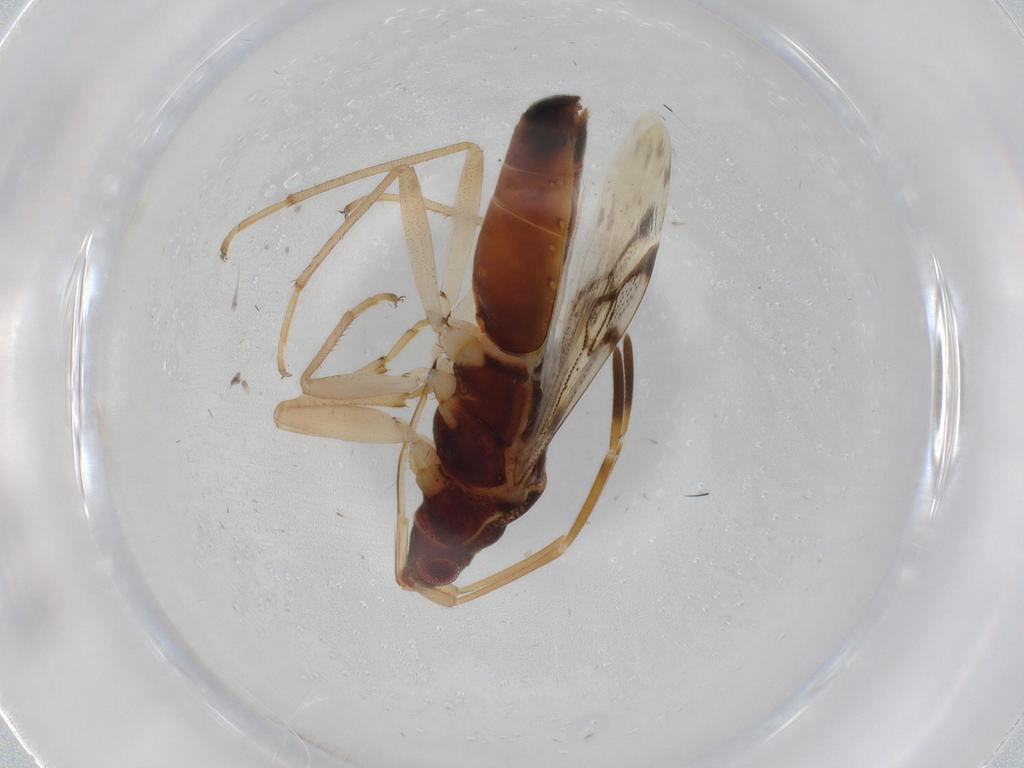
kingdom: Animalia
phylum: Arthropoda
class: Insecta
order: Hemiptera
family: Rhyparochromidae
